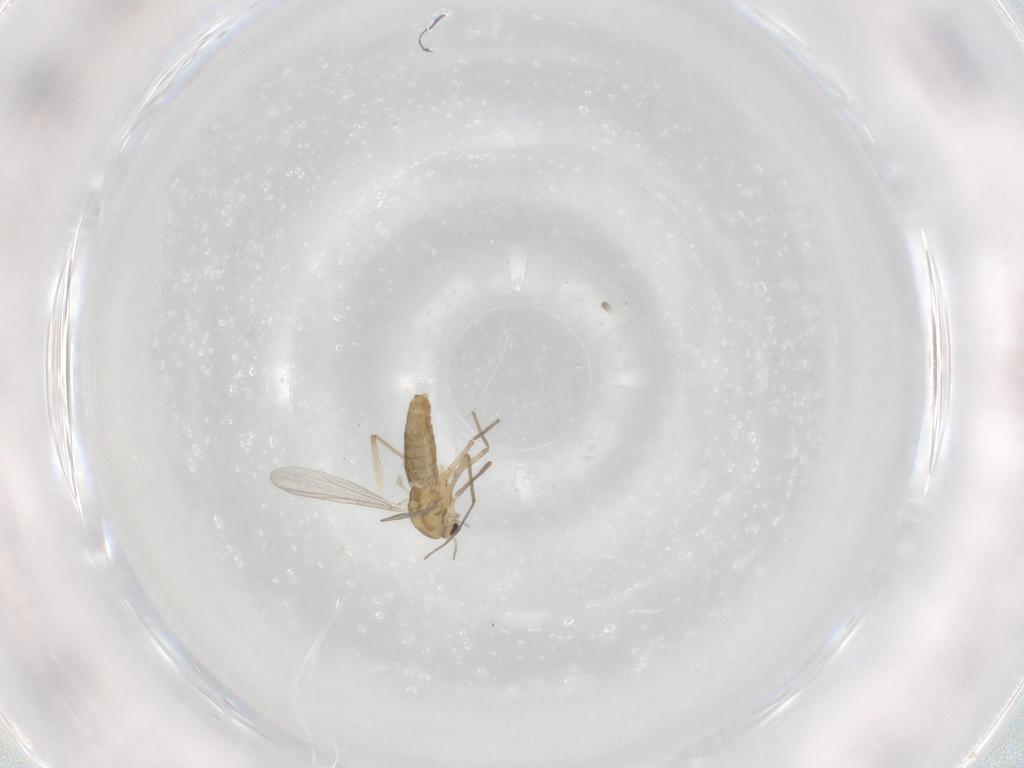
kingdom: Animalia
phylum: Arthropoda
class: Insecta
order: Diptera
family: Chironomidae
